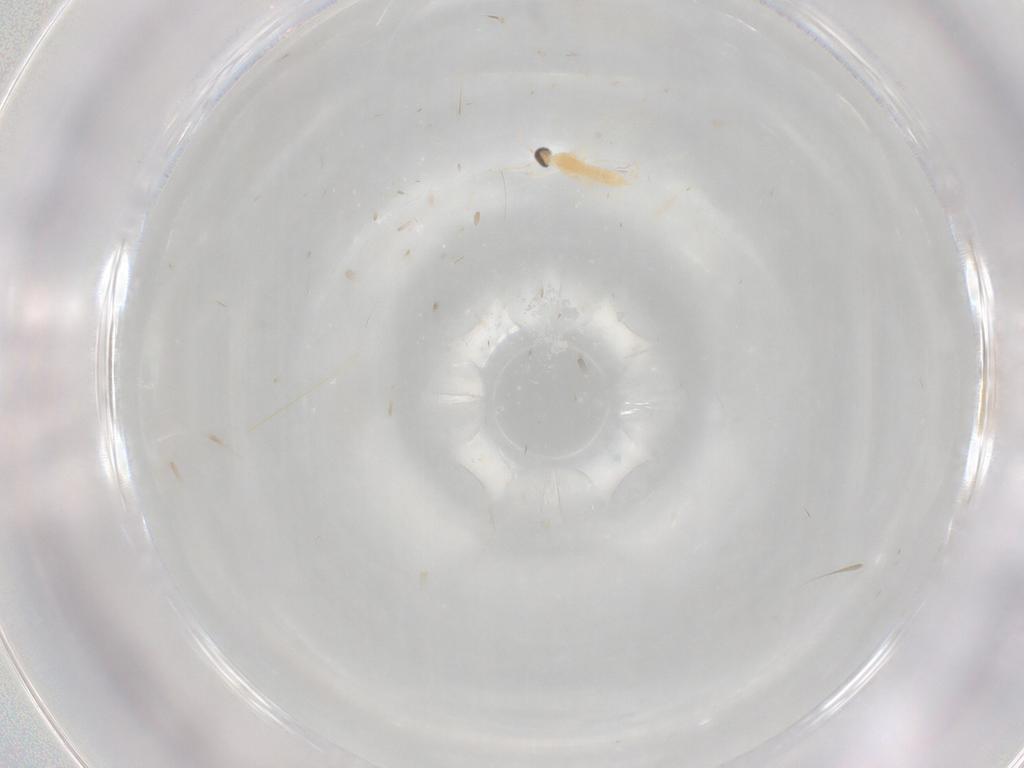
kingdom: Animalia
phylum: Arthropoda
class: Insecta
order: Diptera
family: Cecidomyiidae
